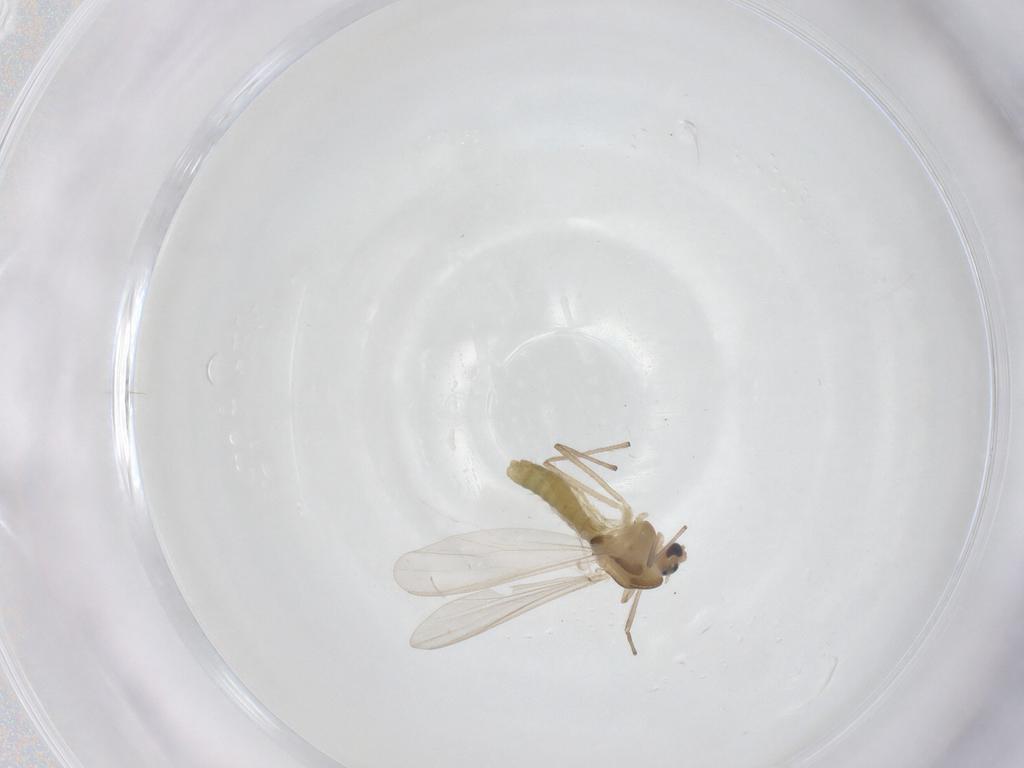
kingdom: Animalia
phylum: Arthropoda
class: Insecta
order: Diptera
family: Chironomidae
